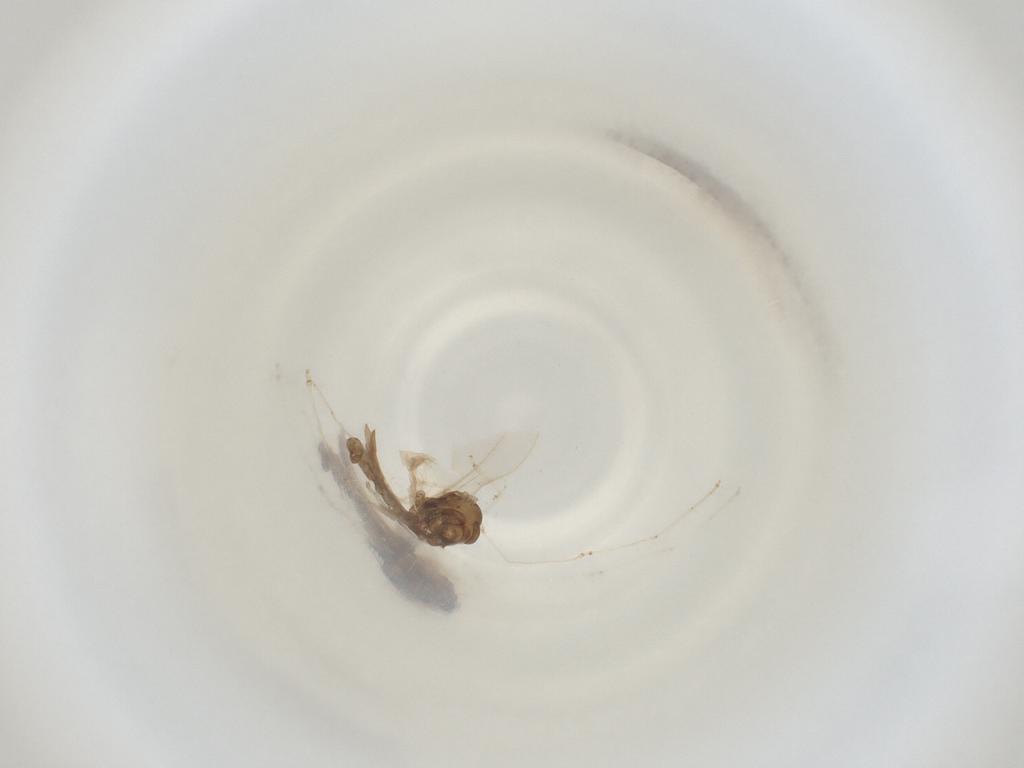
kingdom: Animalia
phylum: Arthropoda
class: Insecta
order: Diptera
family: Cecidomyiidae
